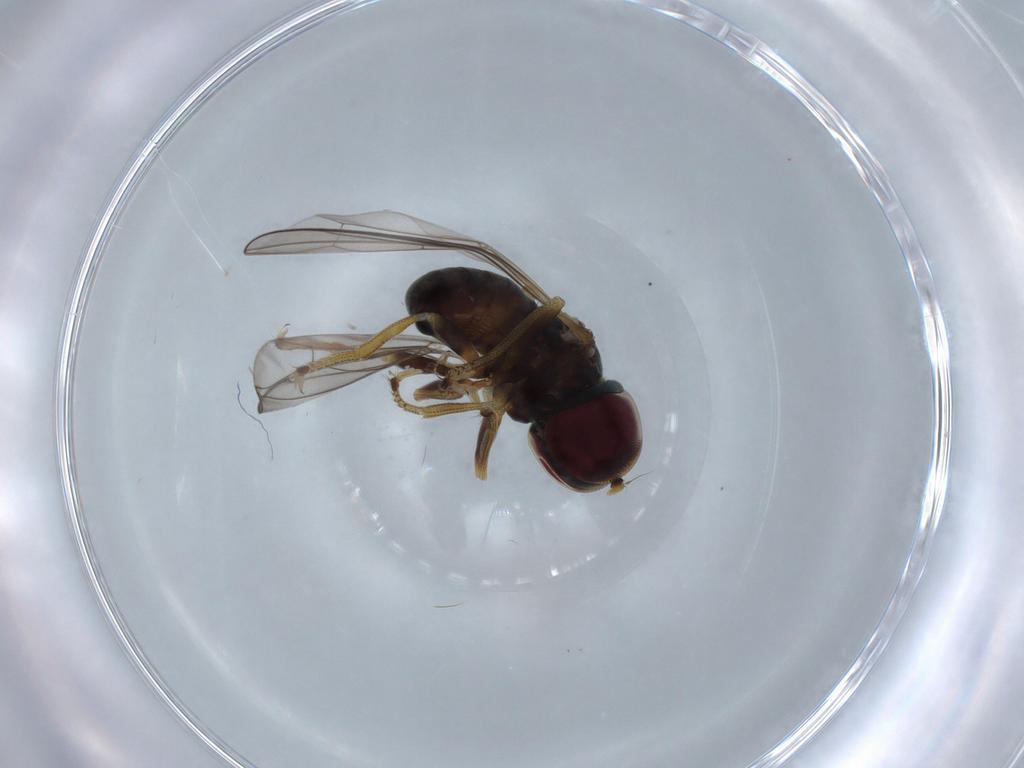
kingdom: Animalia
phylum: Arthropoda
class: Insecta
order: Diptera
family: Pipunculidae
